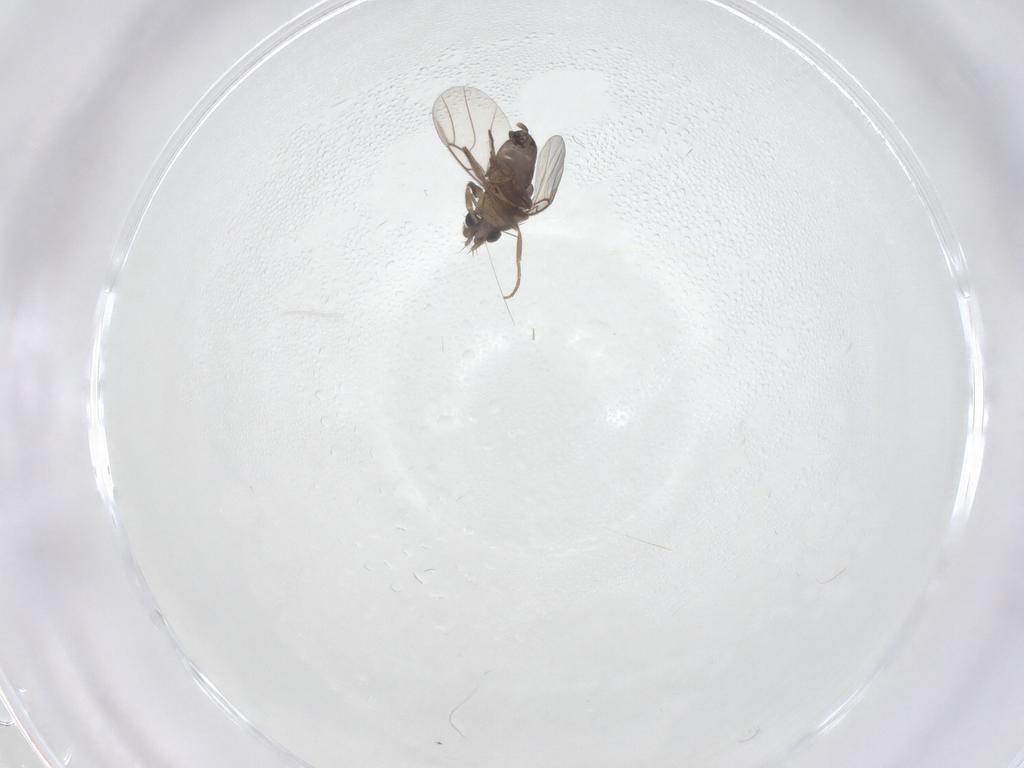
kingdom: Animalia
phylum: Arthropoda
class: Insecta
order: Diptera
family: Phoridae
